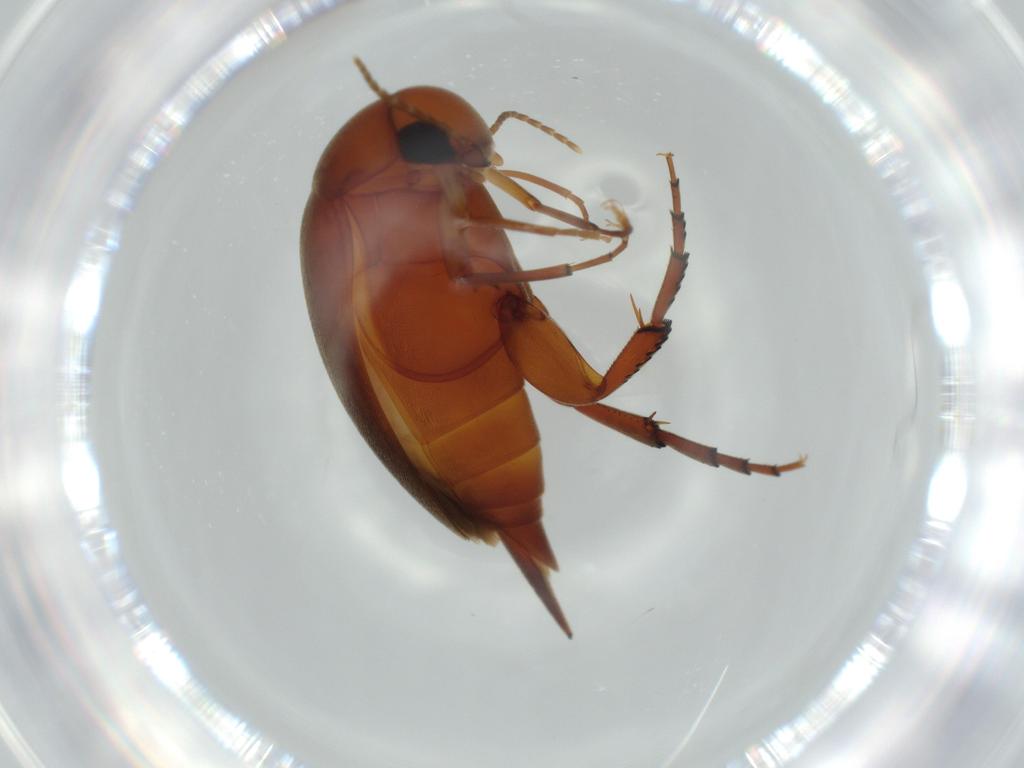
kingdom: Animalia
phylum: Arthropoda
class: Insecta
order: Coleoptera
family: Mordellidae
